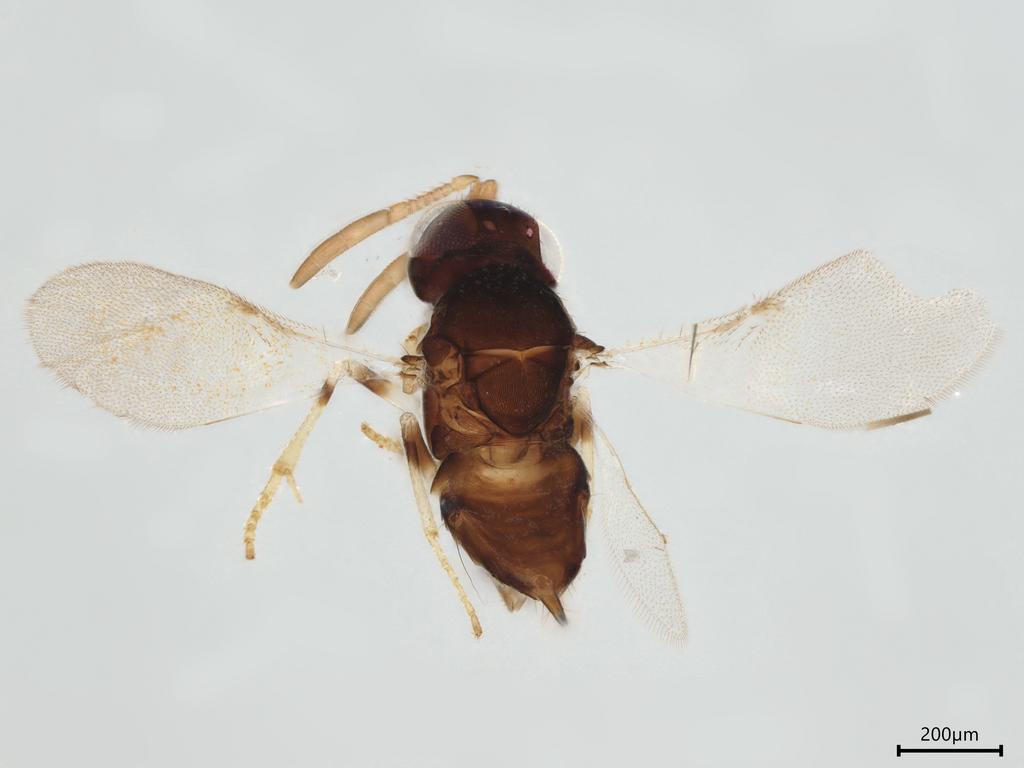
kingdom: Animalia
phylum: Arthropoda
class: Insecta
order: Hymenoptera
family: Encyrtidae
